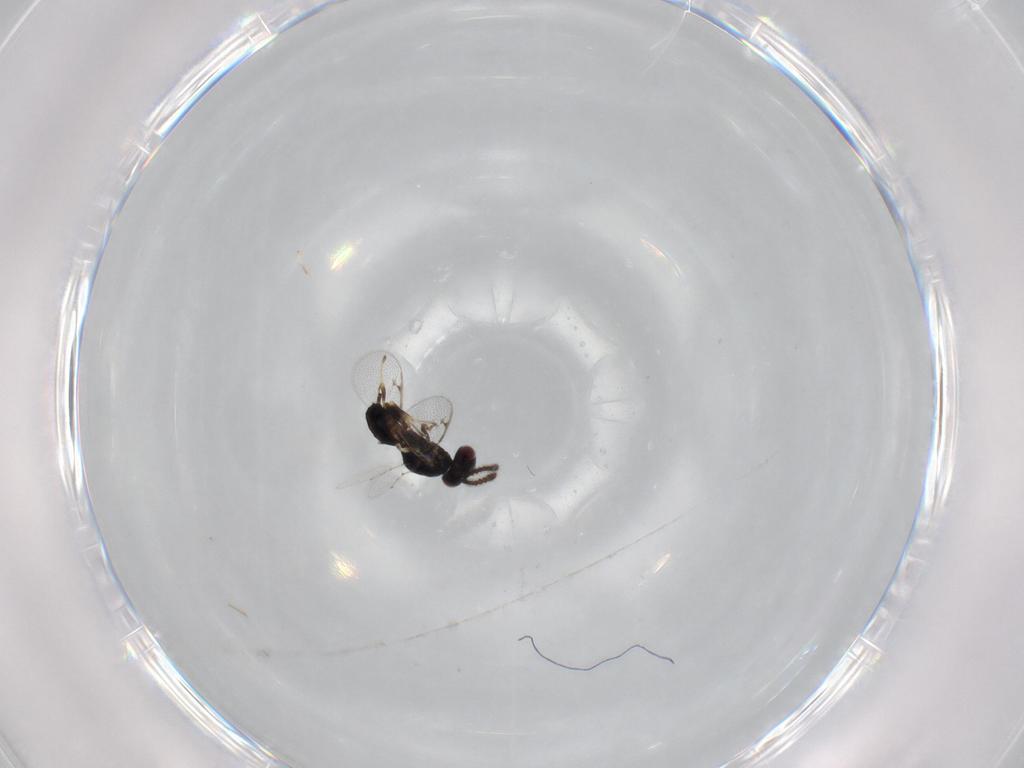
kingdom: Animalia
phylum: Arthropoda
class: Insecta
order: Hymenoptera
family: Pteromalidae
